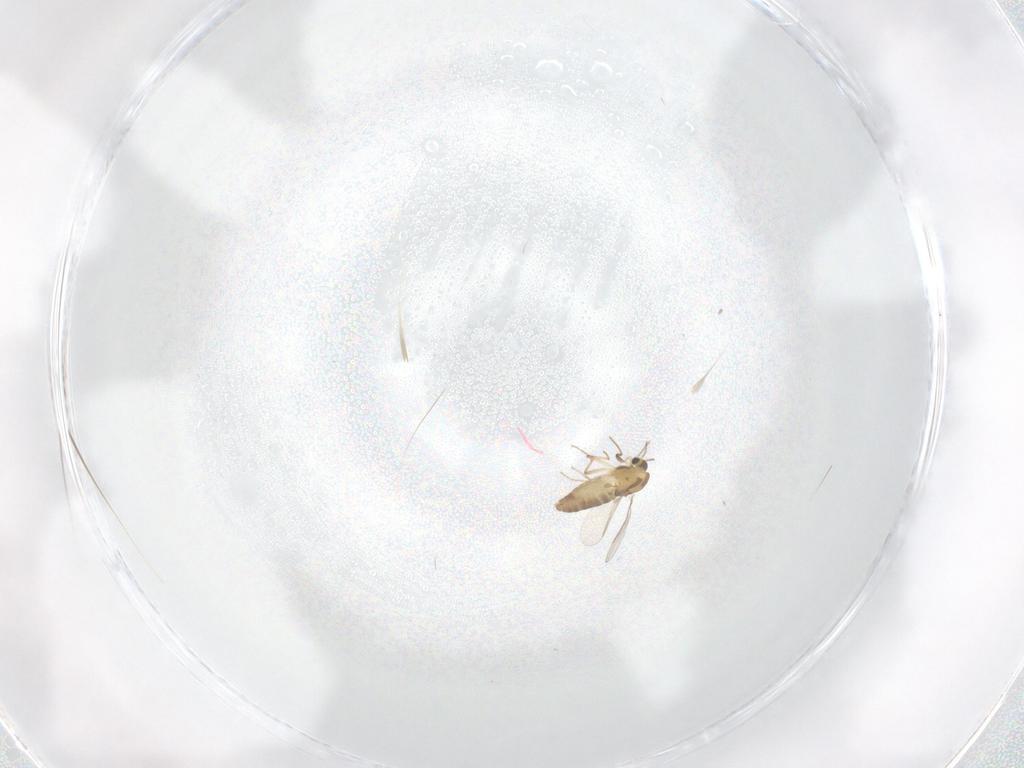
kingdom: Animalia
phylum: Arthropoda
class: Insecta
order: Diptera
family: Chironomidae
